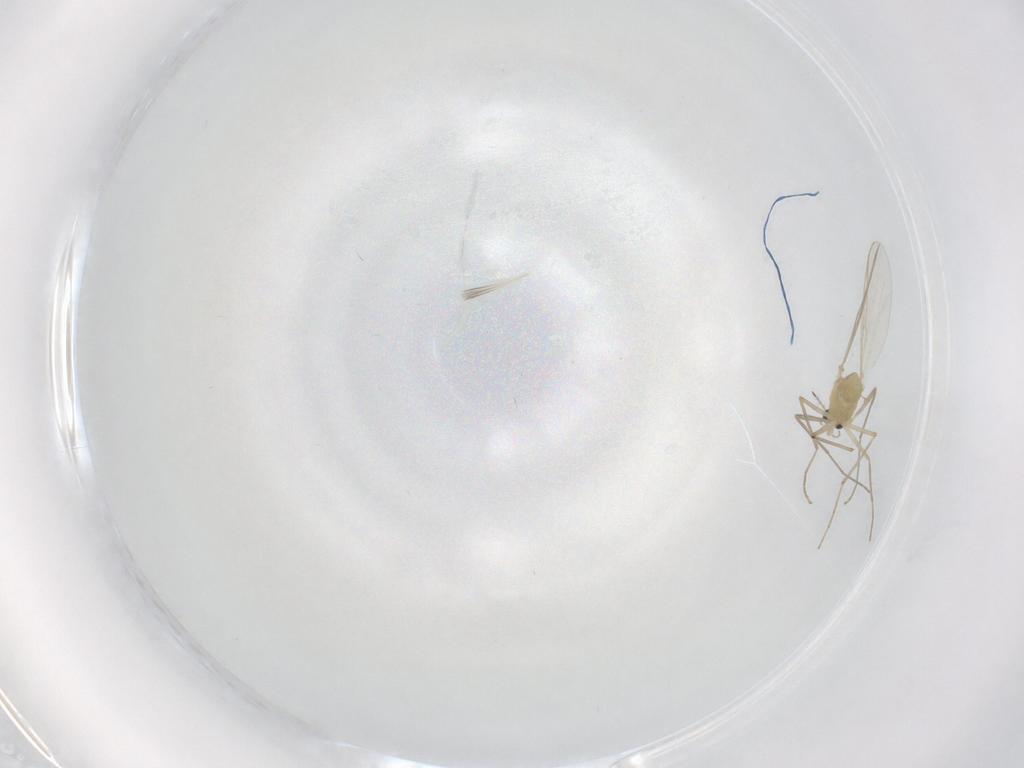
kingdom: Animalia
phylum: Arthropoda
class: Insecta
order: Diptera
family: Chironomidae
